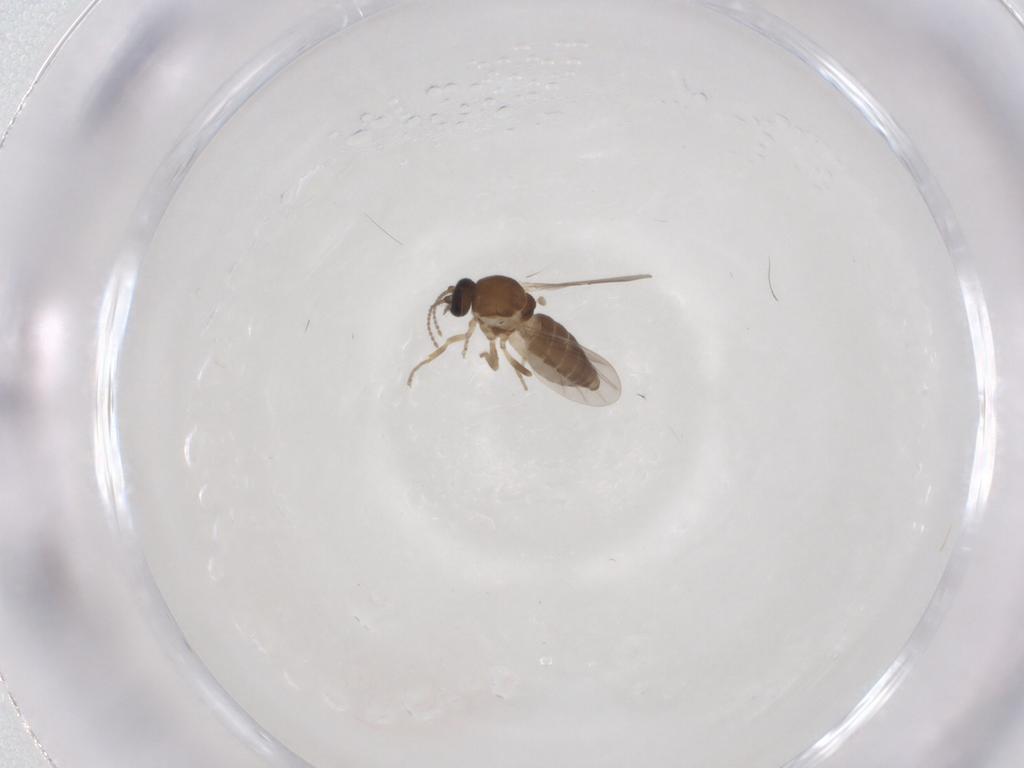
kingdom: Animalia
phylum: Arthropoda
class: Insecta
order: Diptera
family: Ceratopogonidae
